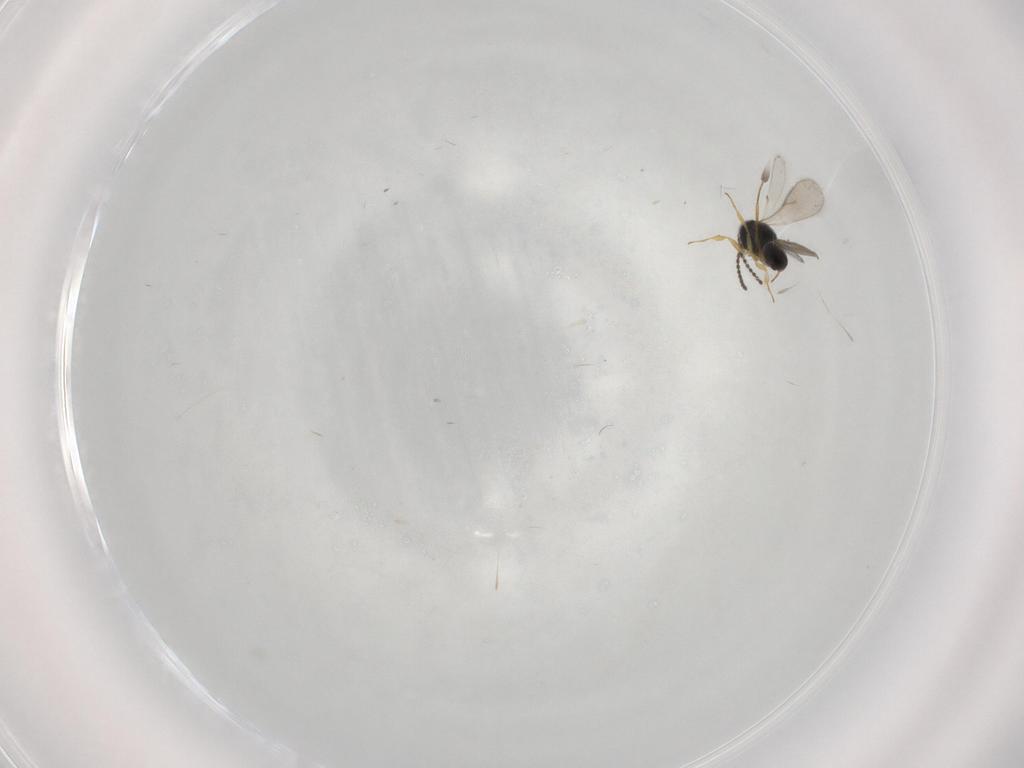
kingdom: Animalia
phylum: Arthropoda
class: Insecta
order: Hymenoptera
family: Scelionidae
